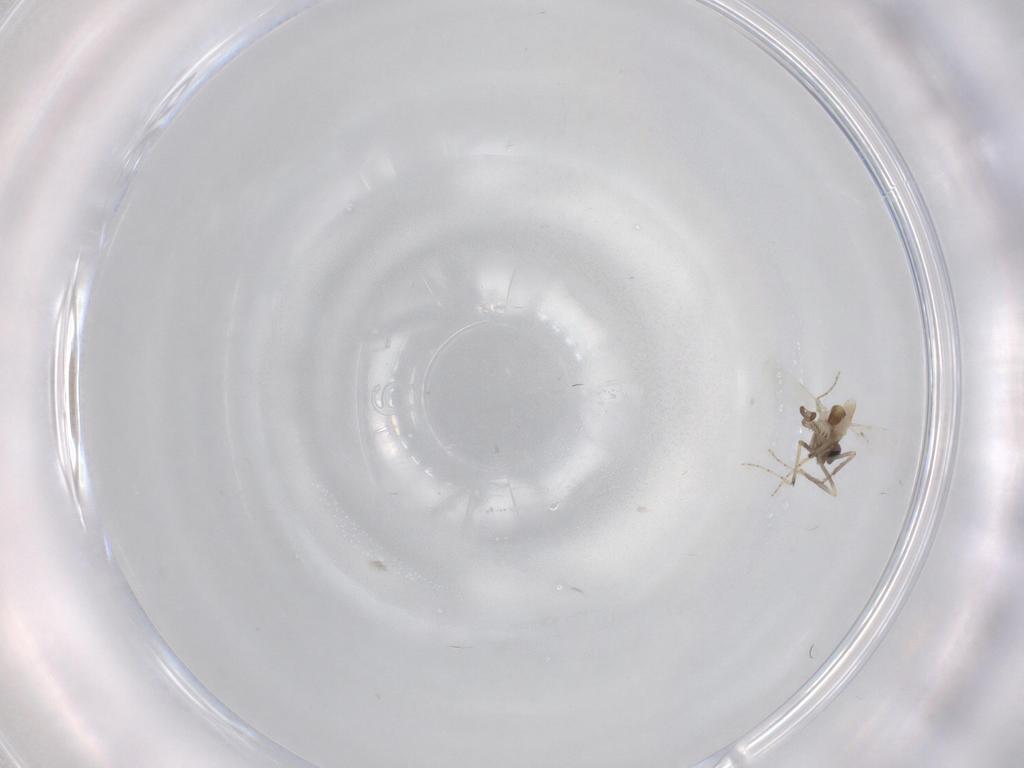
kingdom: Animalia
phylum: Arthropoda
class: Insecta
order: Diptera
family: Ceratopogonidae
